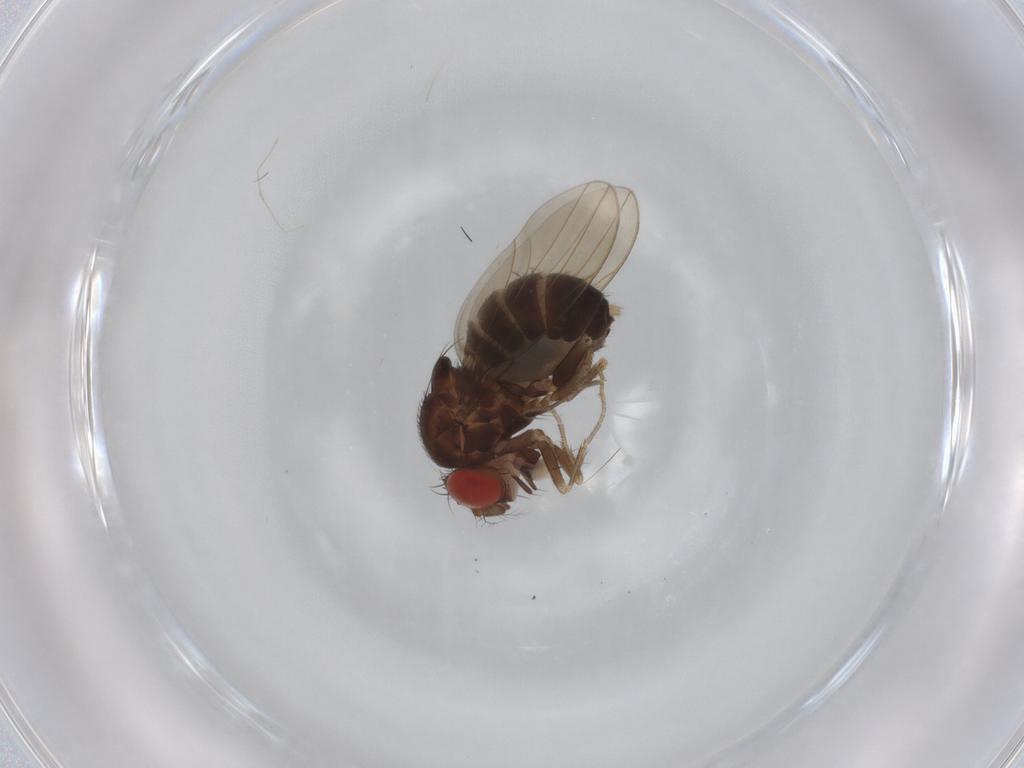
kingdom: Animalia
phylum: Arthropoda
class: Insecta
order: Diptera
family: Drosophilidae
